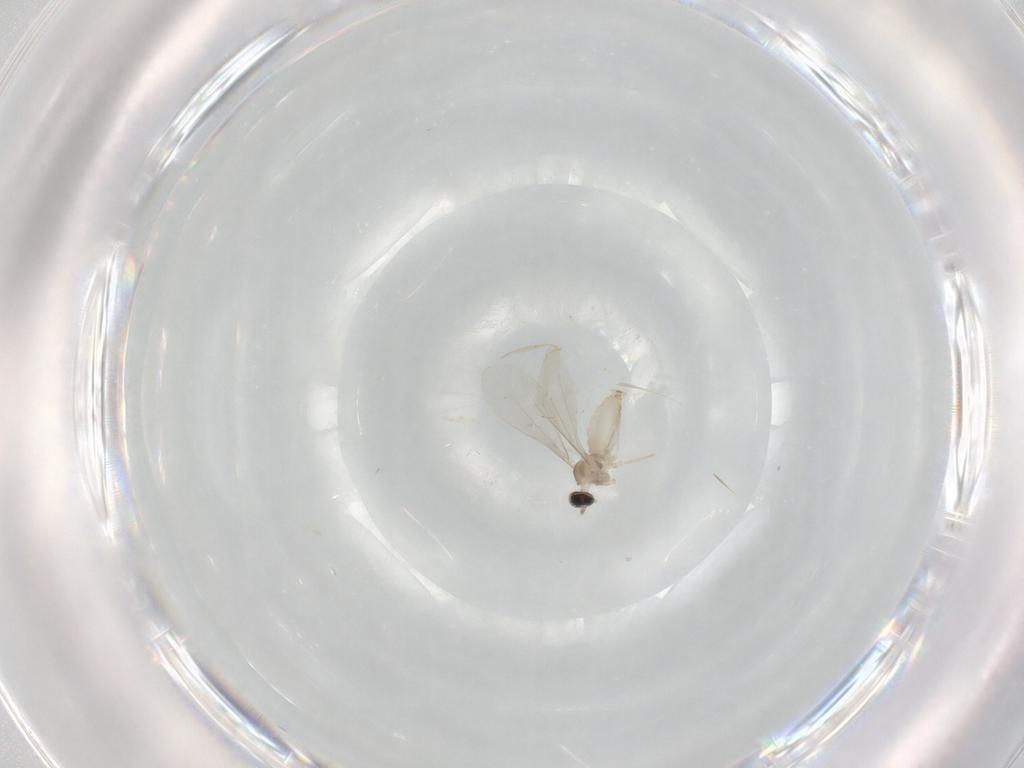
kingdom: Animalia
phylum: Arthropoda
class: Insecta
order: Diptera
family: Cecidomyiidae
